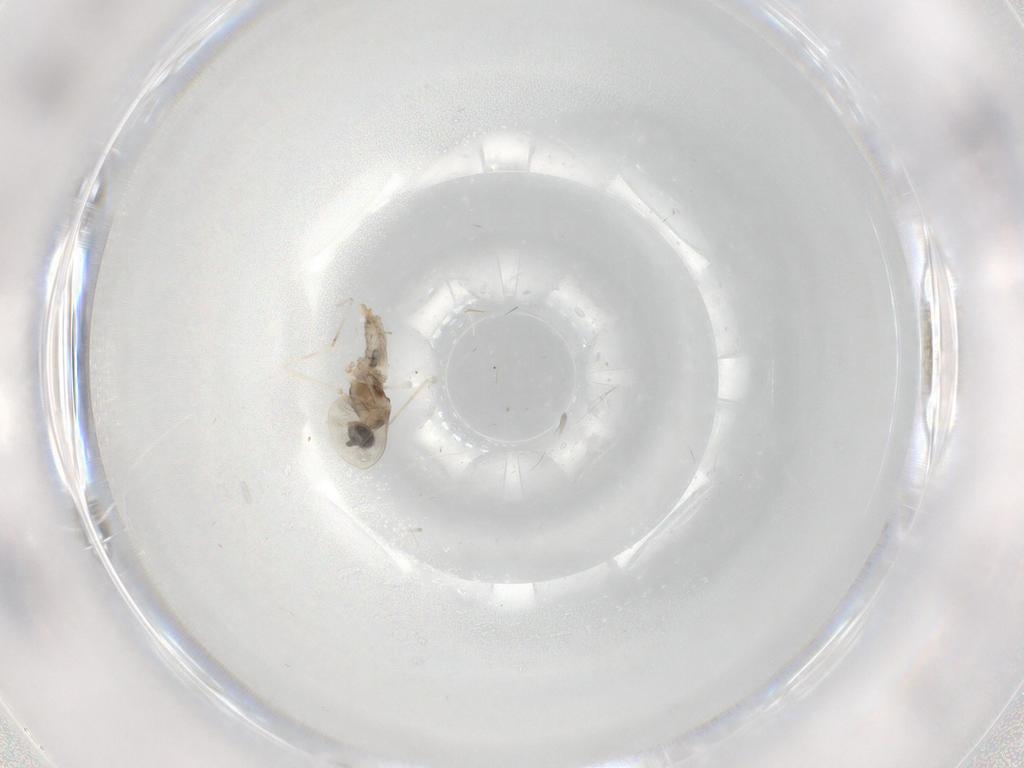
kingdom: Animalia
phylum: Arthropoda
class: Insecta
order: Diptera
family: Cecidomyiidae
